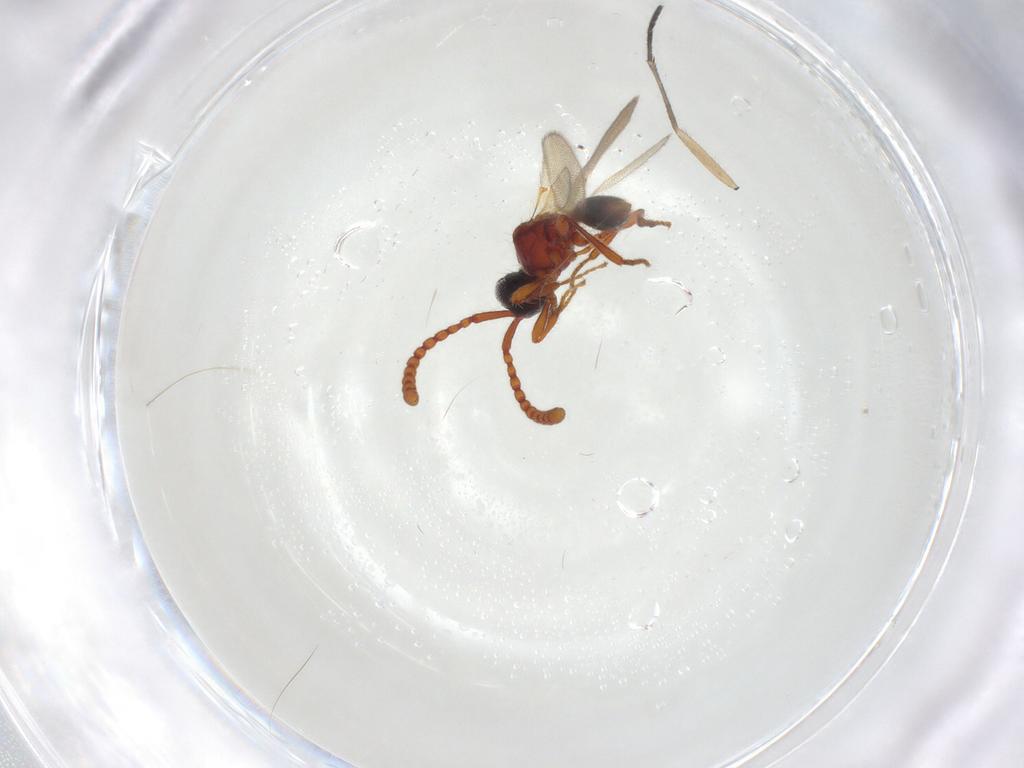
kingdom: Animalia
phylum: Arthropoda
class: Insecta
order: Hymenoptera
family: Diapriidae
